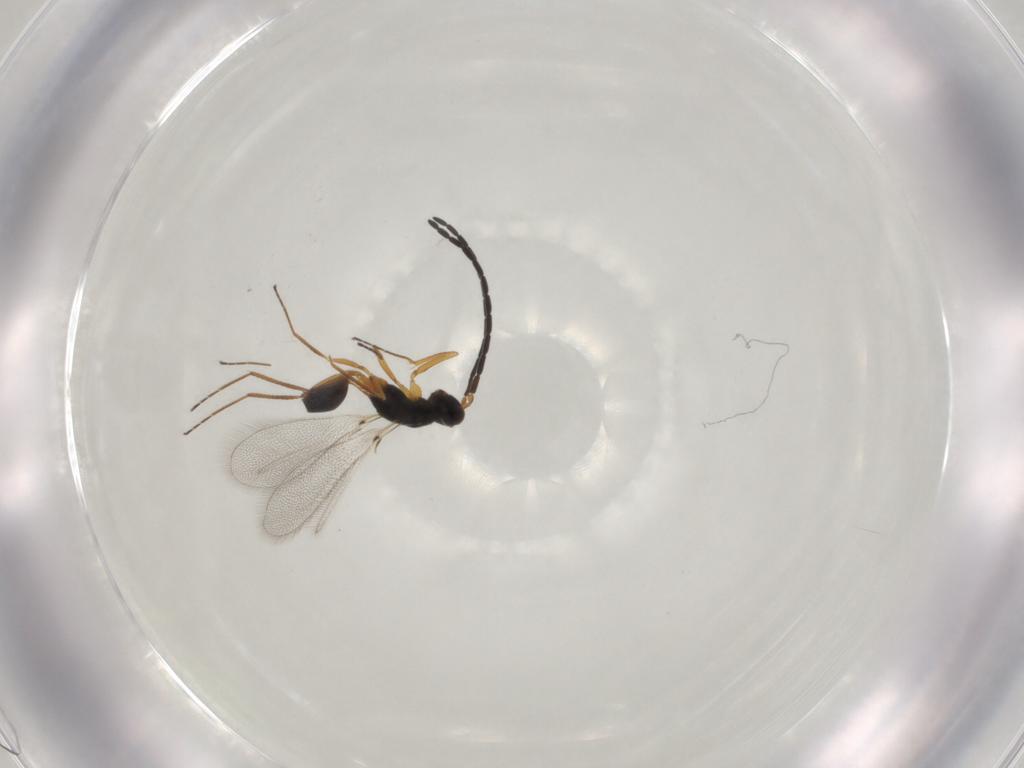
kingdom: Animalia
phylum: Arthropoda
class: Insecta
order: Hymenoptera
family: Mymaridae
